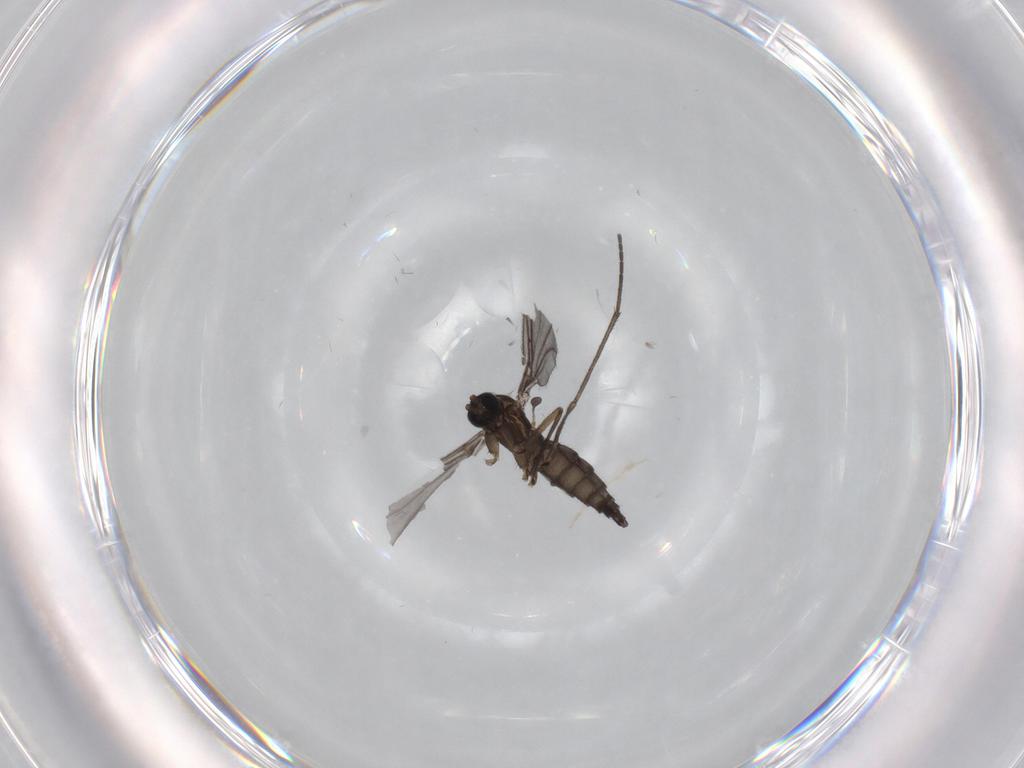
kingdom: Animalia
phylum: Arthropoda
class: Insecta
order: Diptera
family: Sciaridae
